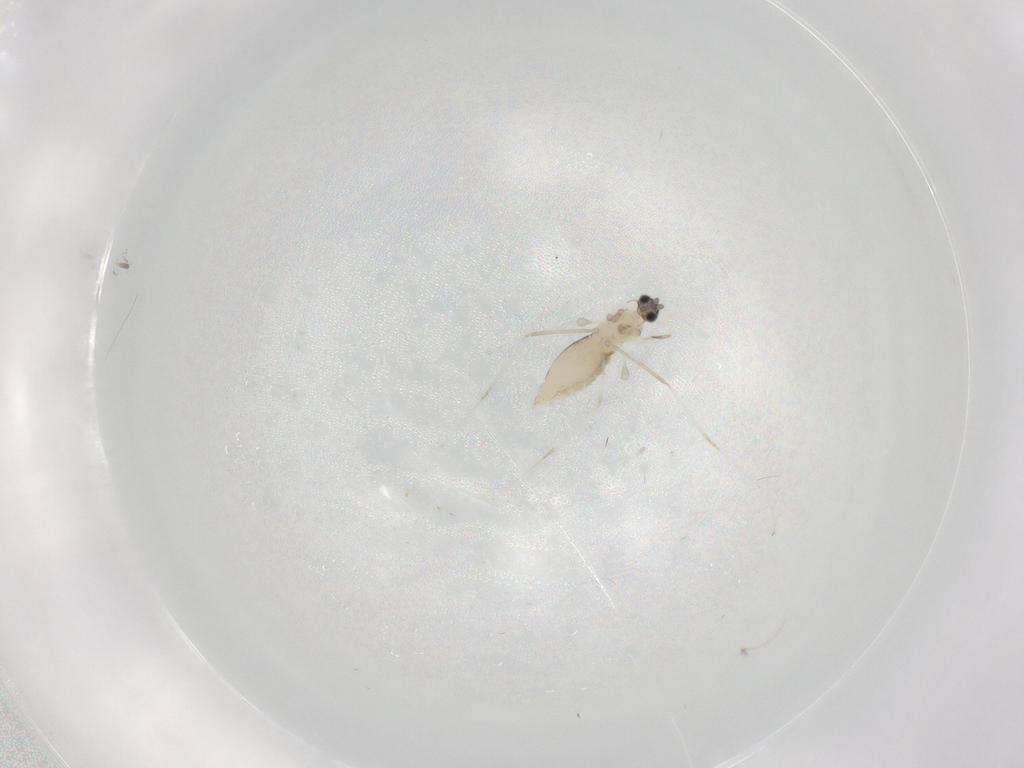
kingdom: Animalia
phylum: Arthropoda
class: Insecta
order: Diptera
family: Cecidomyiidae
